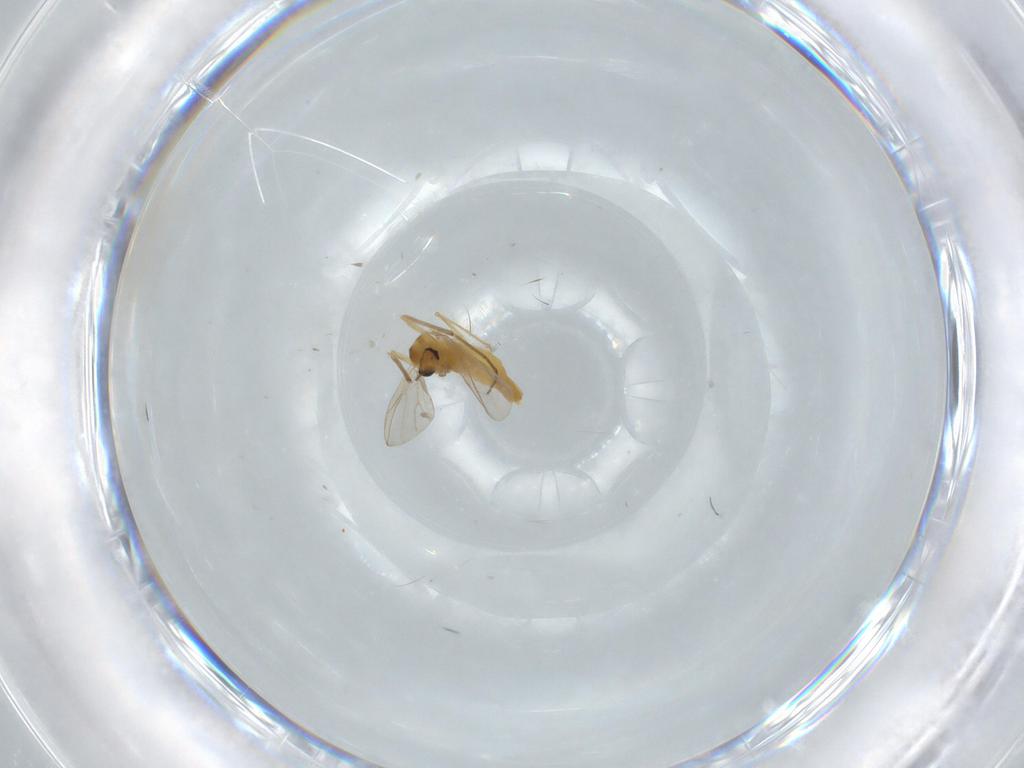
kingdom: Animalia
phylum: Arthropoda
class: Insecta
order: Diptera
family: Chironomidae
